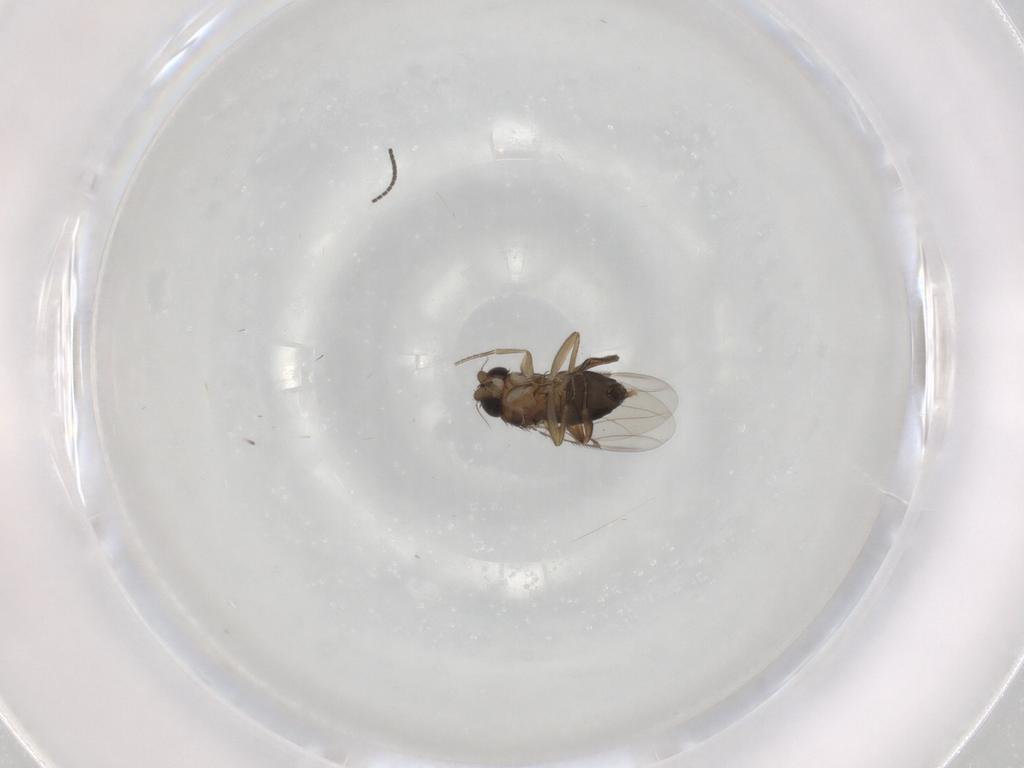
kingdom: Animalia
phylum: Arthropoda
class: Insecta
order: Diptera
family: Phoridae
